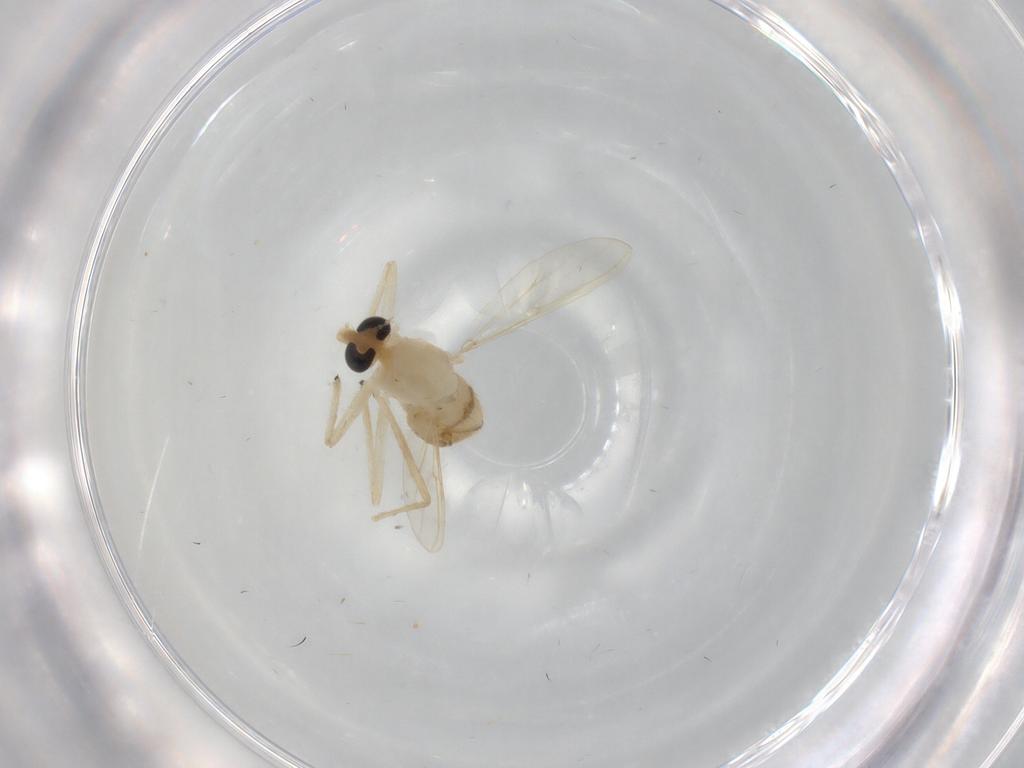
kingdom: Animalia
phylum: Arthropoda
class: Insecta
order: Diptera
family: Chironomidae
